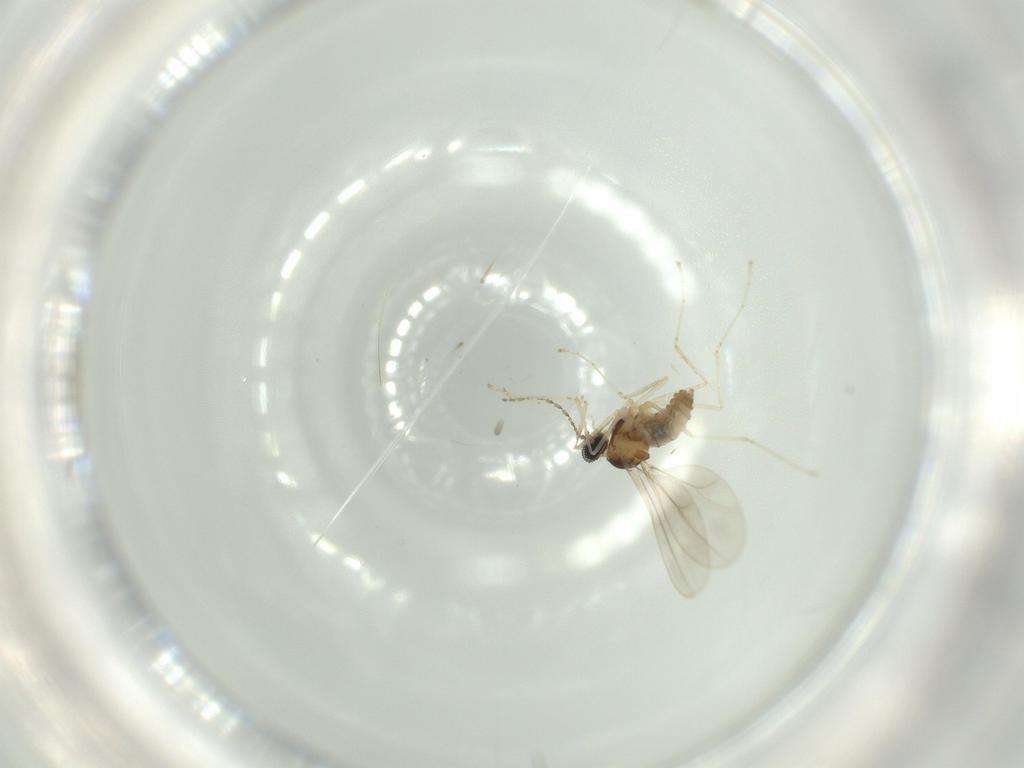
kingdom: Animalia
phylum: Arthropoda
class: Insecta
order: Diptera
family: Cecidomyiidae
